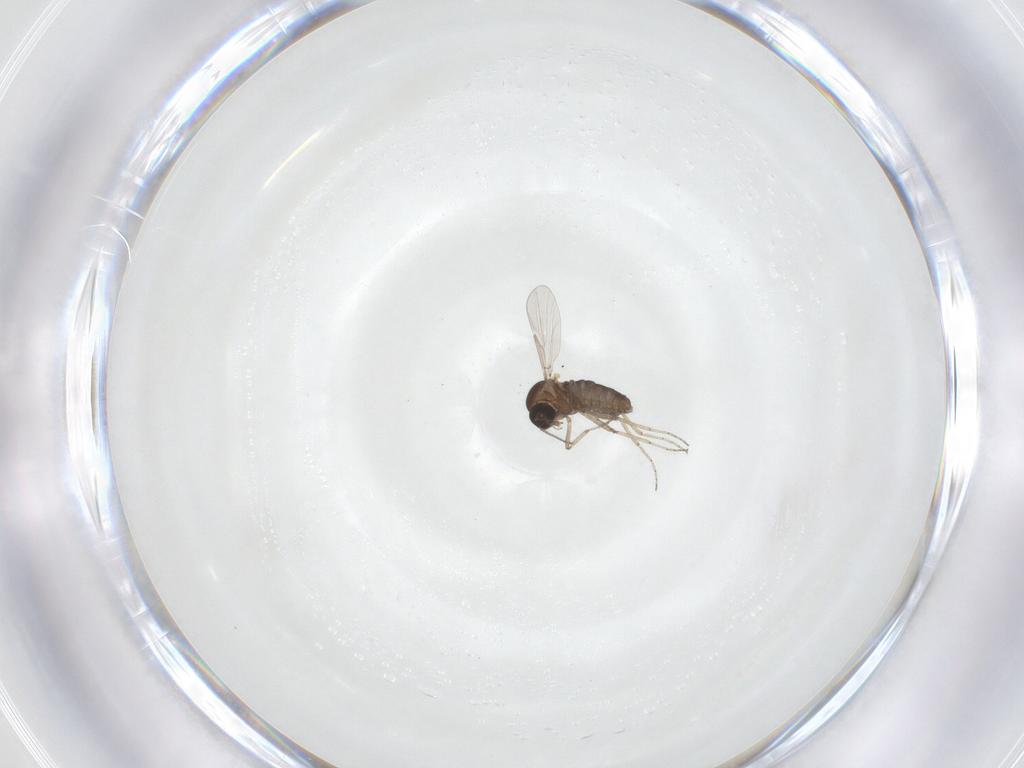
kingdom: Animalia
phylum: Arthropoda
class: Insecta
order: Diptera
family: Ceratopogonidae
